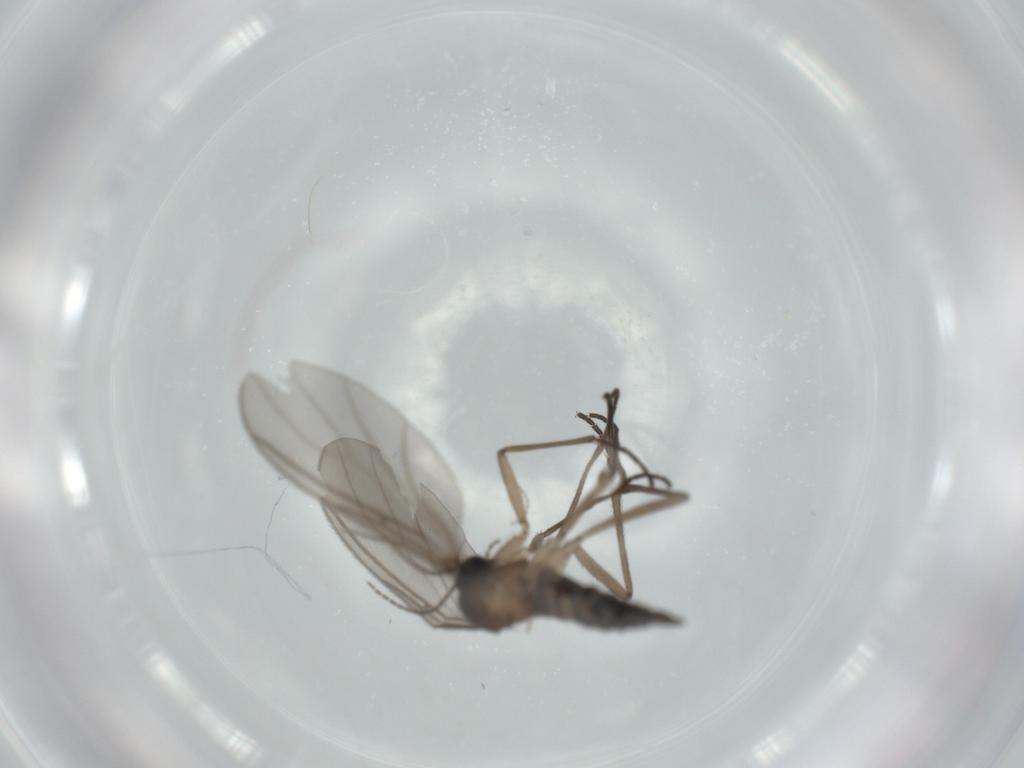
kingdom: Animalia
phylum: Arthropoda
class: Insecta
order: Diptera
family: Sciaridae
